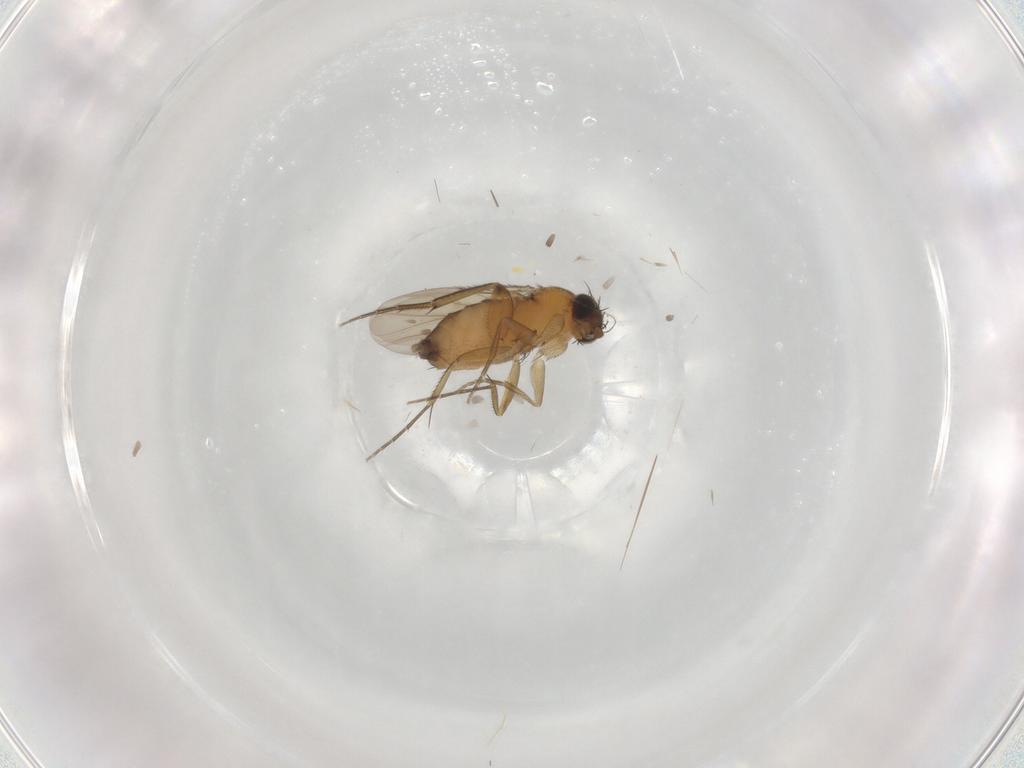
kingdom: Animalia
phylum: Arthropoda
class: Insecta
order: Diptera
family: Phoridae
